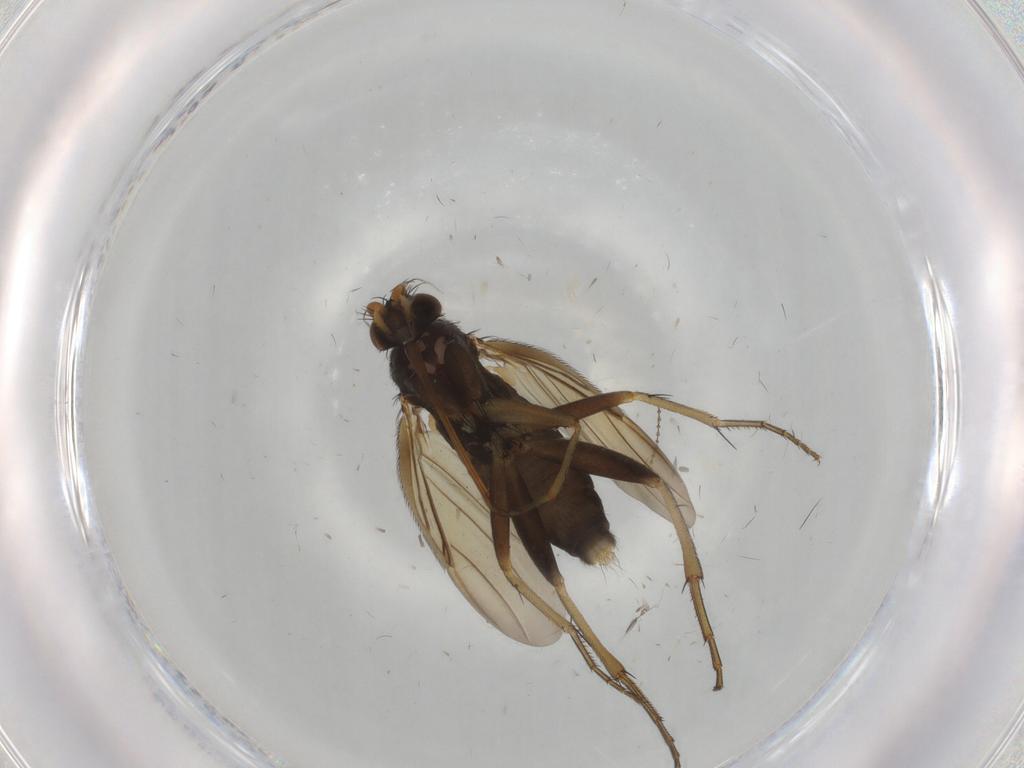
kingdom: Animalia
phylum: Arthropoda
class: Insecta
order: Diptera
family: Phoridae
